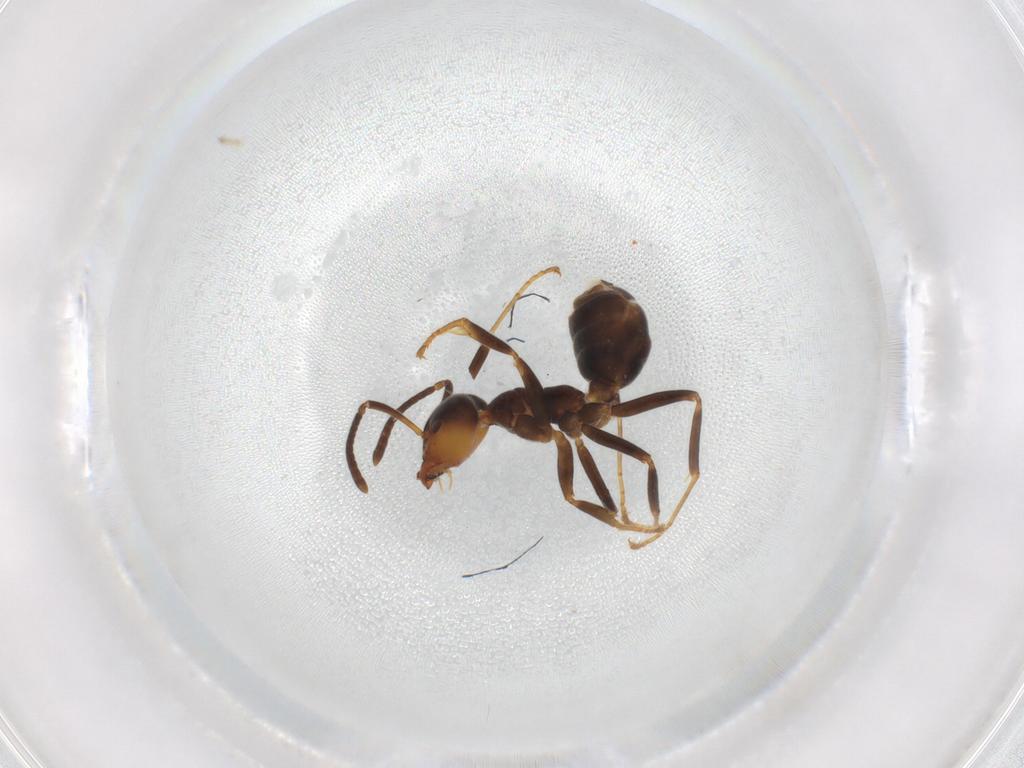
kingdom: Animalia
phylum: Arthropoda
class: Insecta
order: Hymenoptera
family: Formicidae
